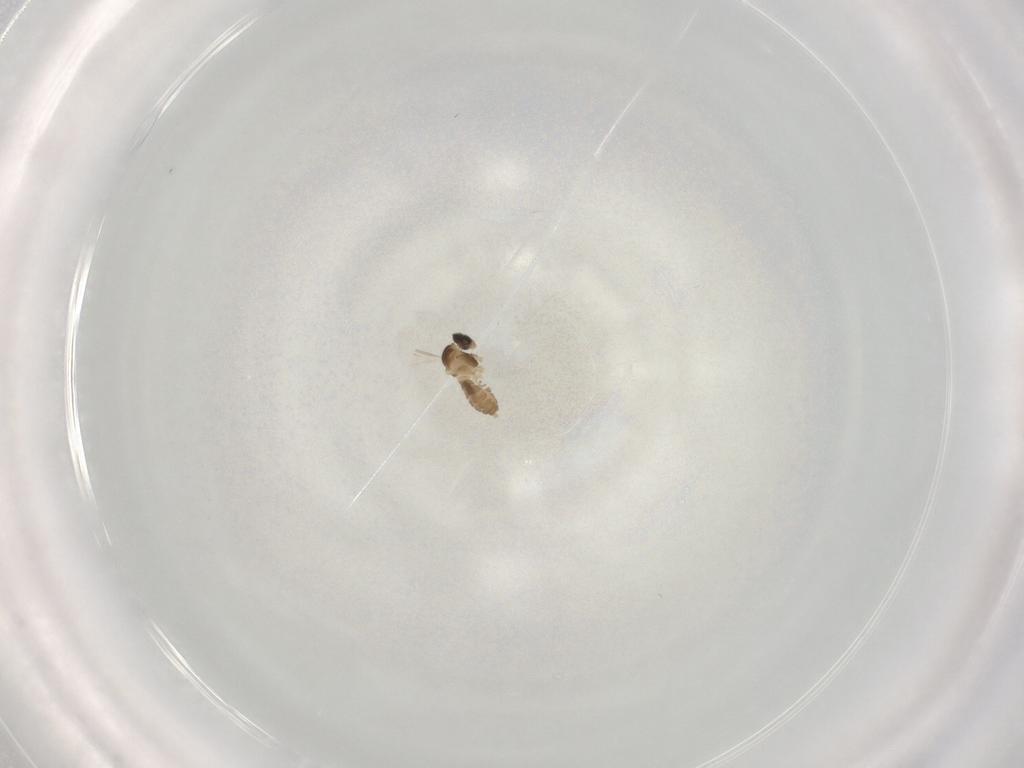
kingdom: Animalia
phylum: Arthropoda
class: Insecta
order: Diptera
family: Cecidomyiidae
